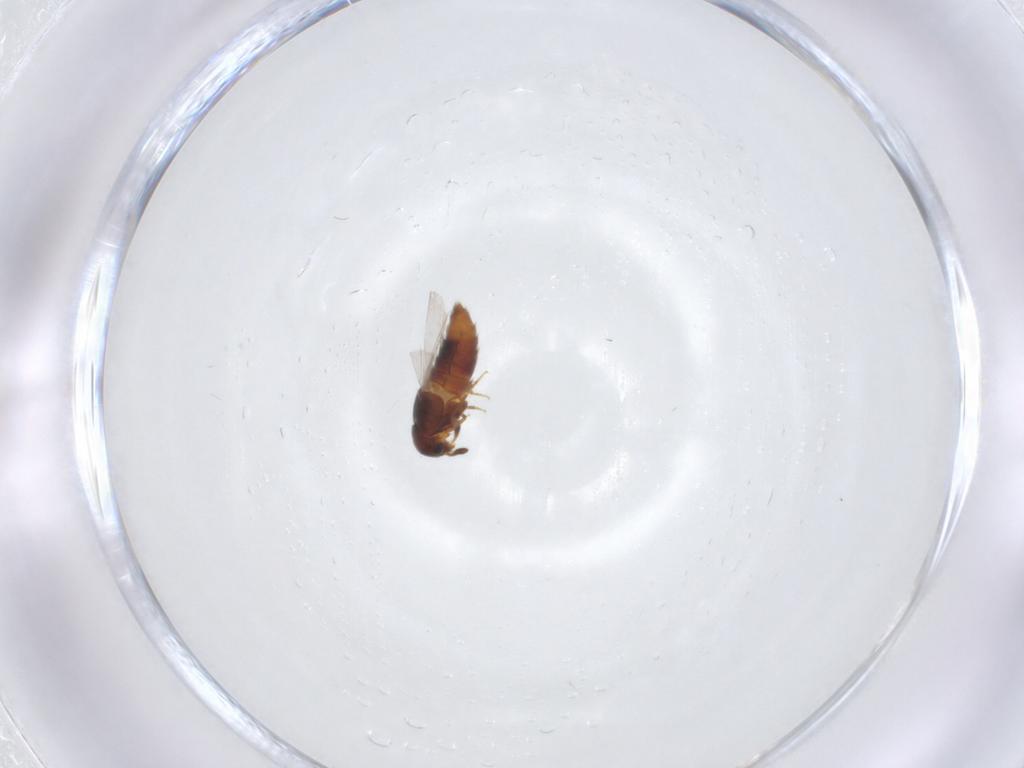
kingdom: Animalia
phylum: Arthropoda
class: Insecta
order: Coleoptera
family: Staphylinidae
